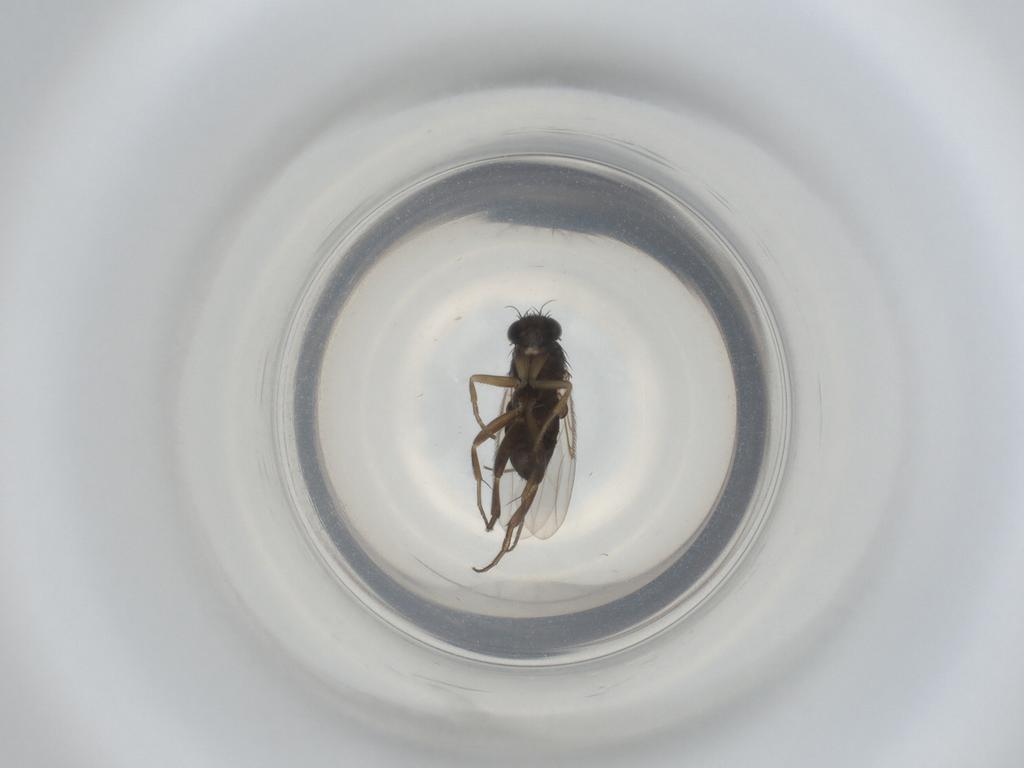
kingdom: Animalia
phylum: Arthropoda
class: Insecta
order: Diptera
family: Phoridae
